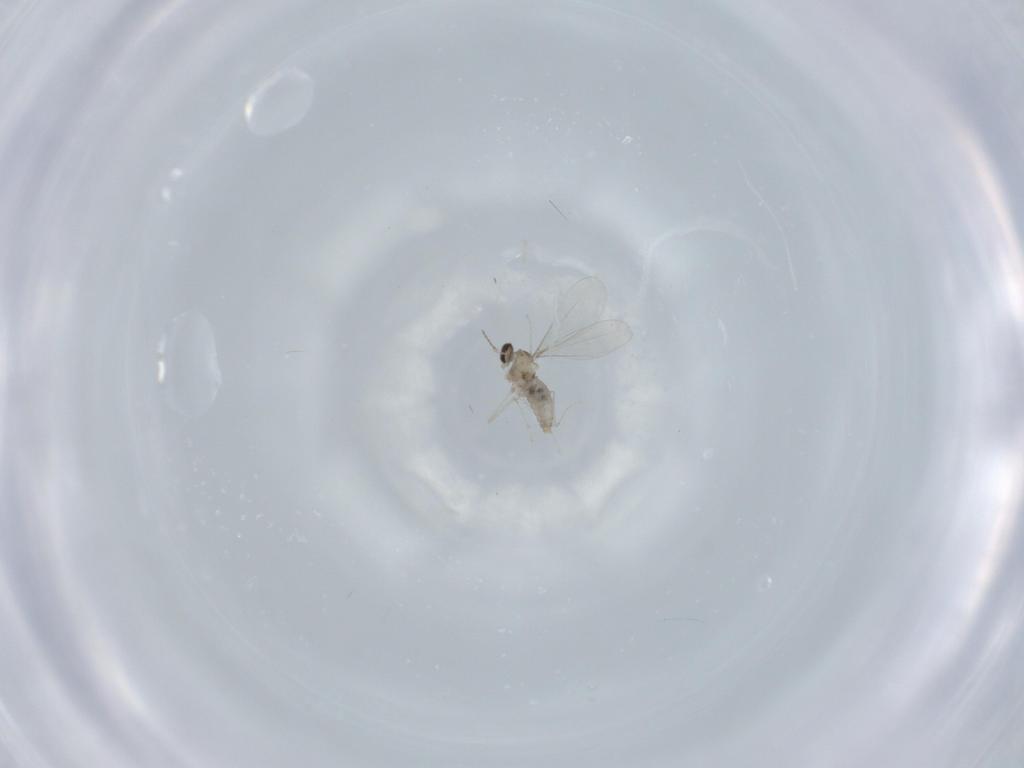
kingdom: Animalia
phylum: Arthropoda
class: Insecta
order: Diptera
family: Cecidomyiidae
